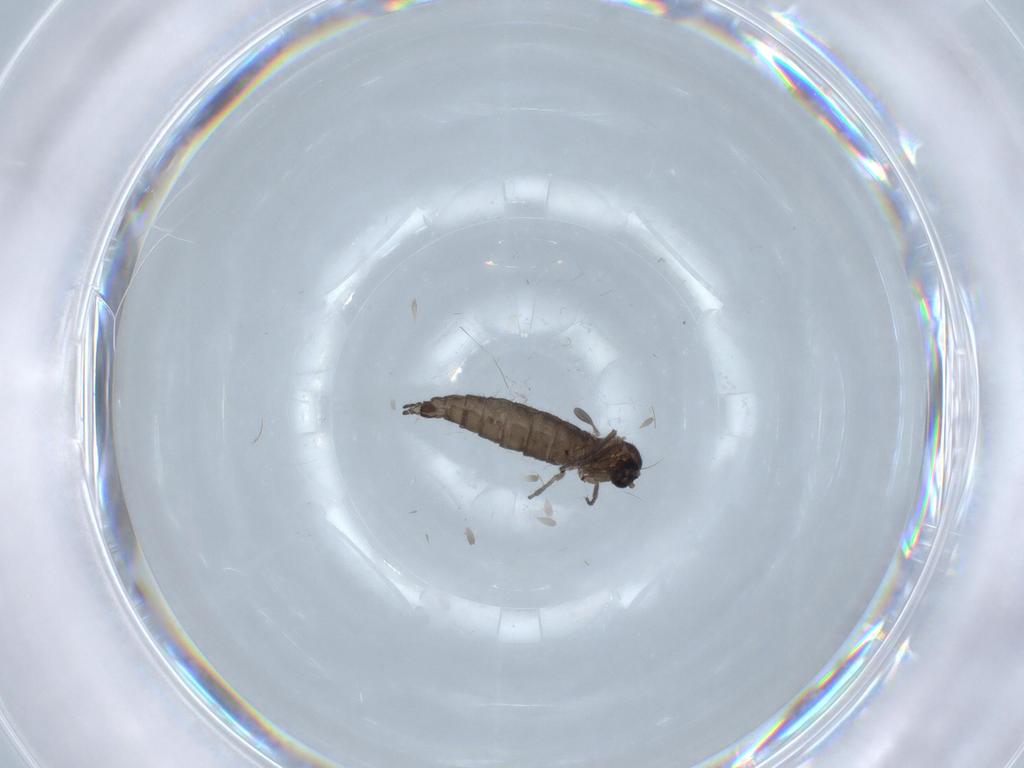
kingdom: Animalia
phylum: Arthropoda
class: Insecta
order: Diptera
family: Sciaridae
